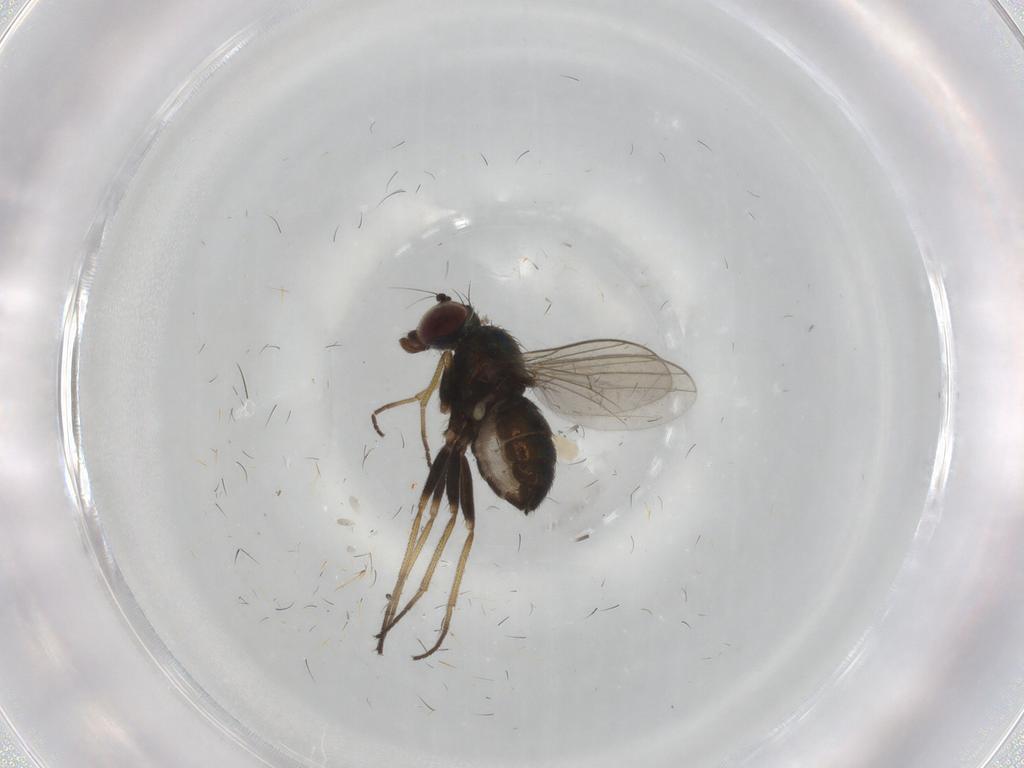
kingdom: Animalia
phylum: Arthropoda
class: Insecta
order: Diptera
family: Dolichopodidae
